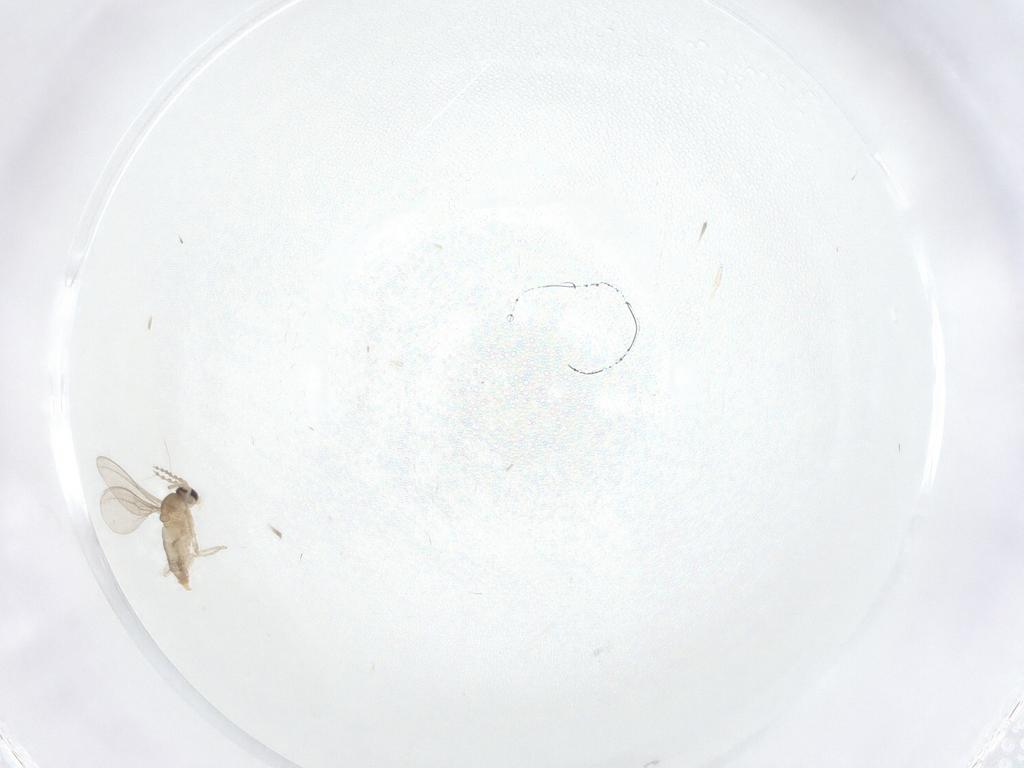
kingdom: Animalia
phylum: Arthropoda
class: Insecta
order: Diptera
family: Cecidomyiidae
